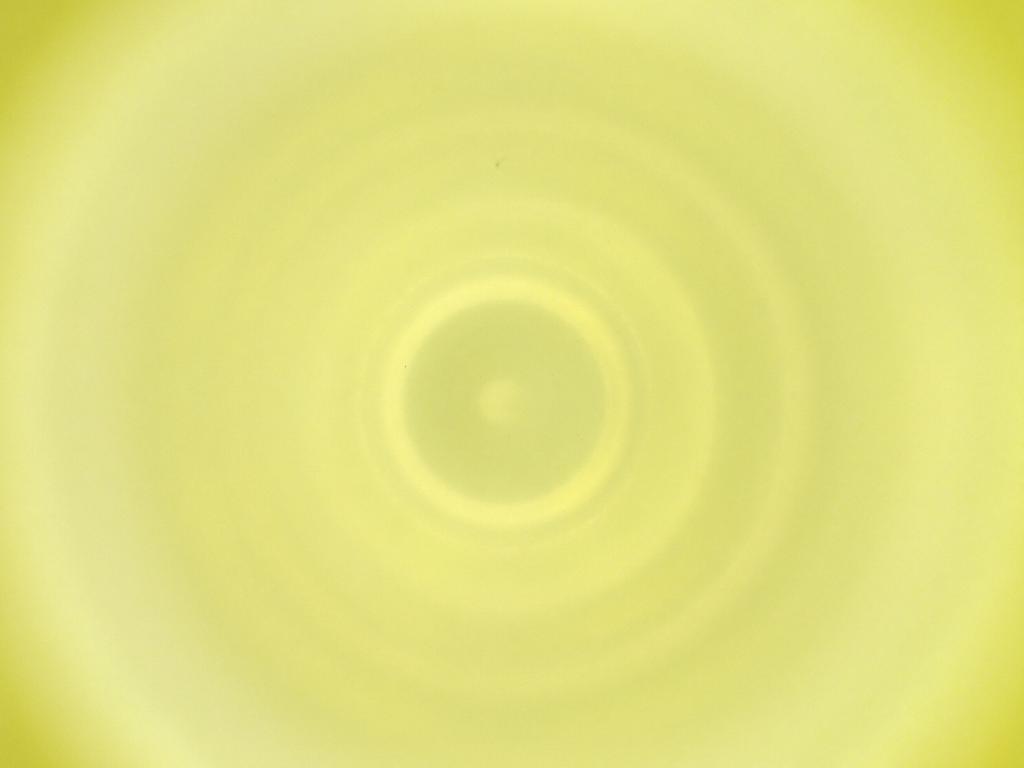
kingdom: Animalia
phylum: Arthropoda
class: Insecta
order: Diptera
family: Cecidomyiidae
